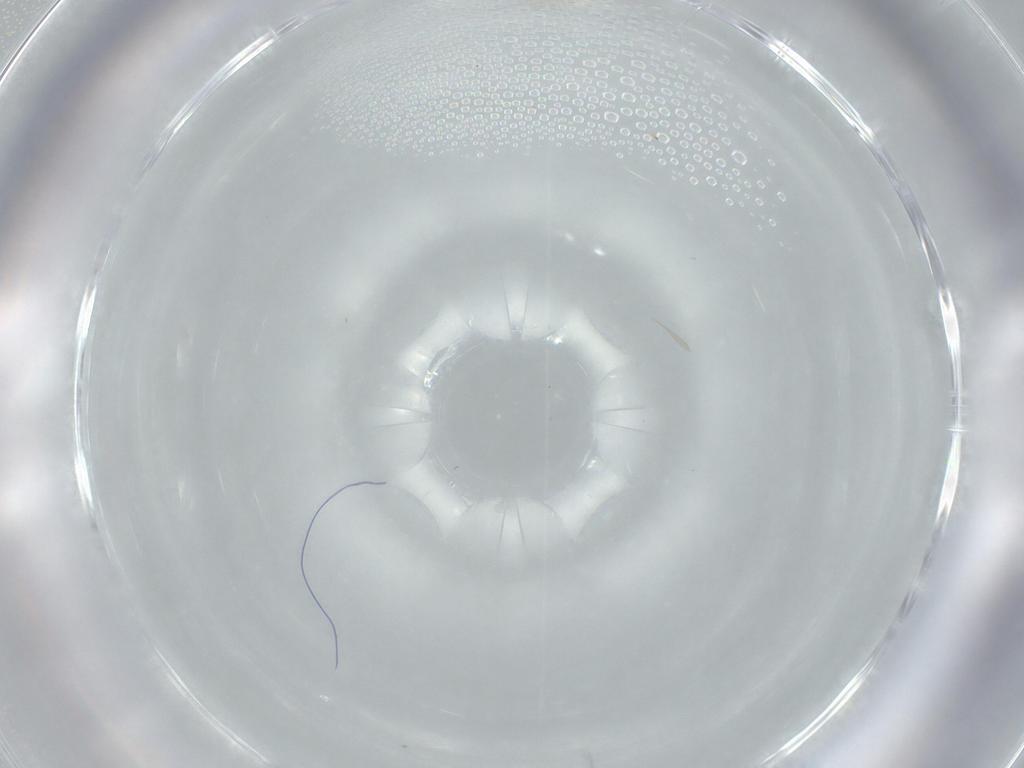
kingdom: Animalia
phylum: Arthropoda
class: Insecta
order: Diptera
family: Cecidomyiidae
